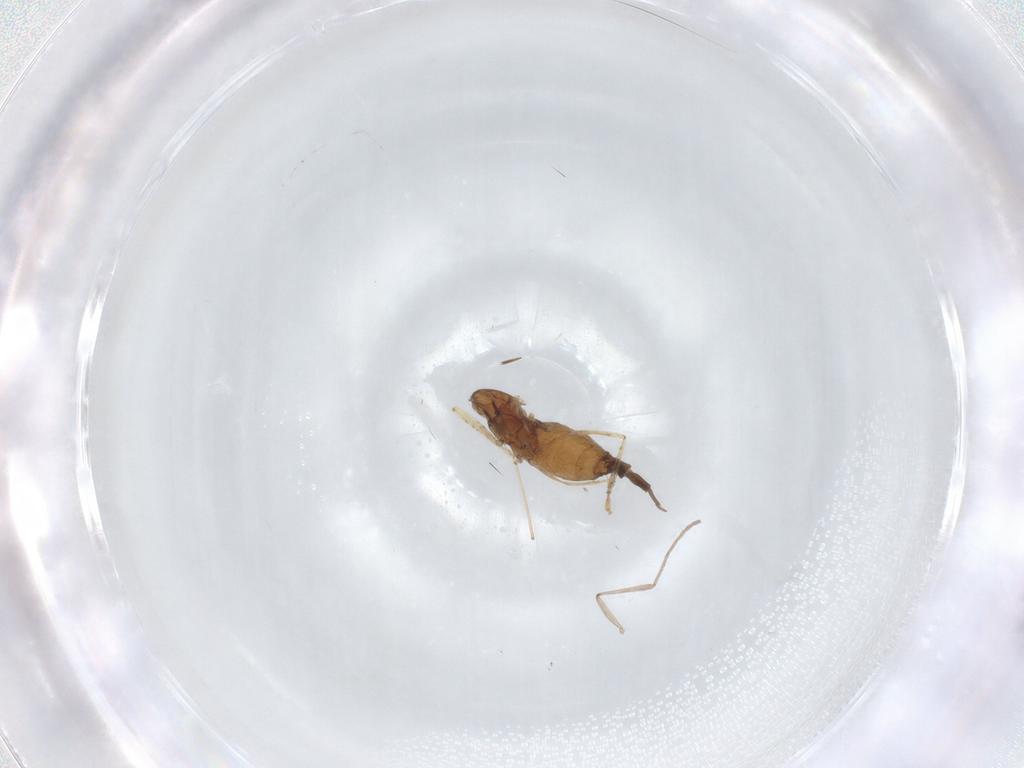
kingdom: Animalia
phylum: Arthropoda
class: Insecta
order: Diptera
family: Cecidomyiidae
